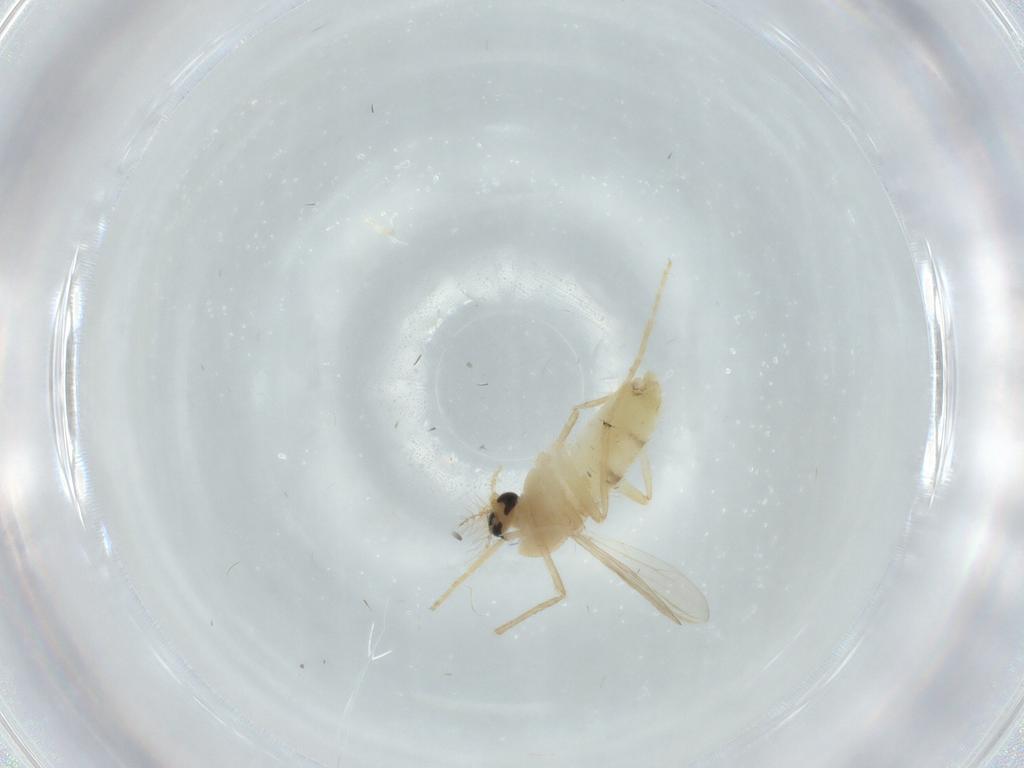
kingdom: Animalia
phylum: Arthropoda
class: Insecta
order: Diptera
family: Chironomidae
